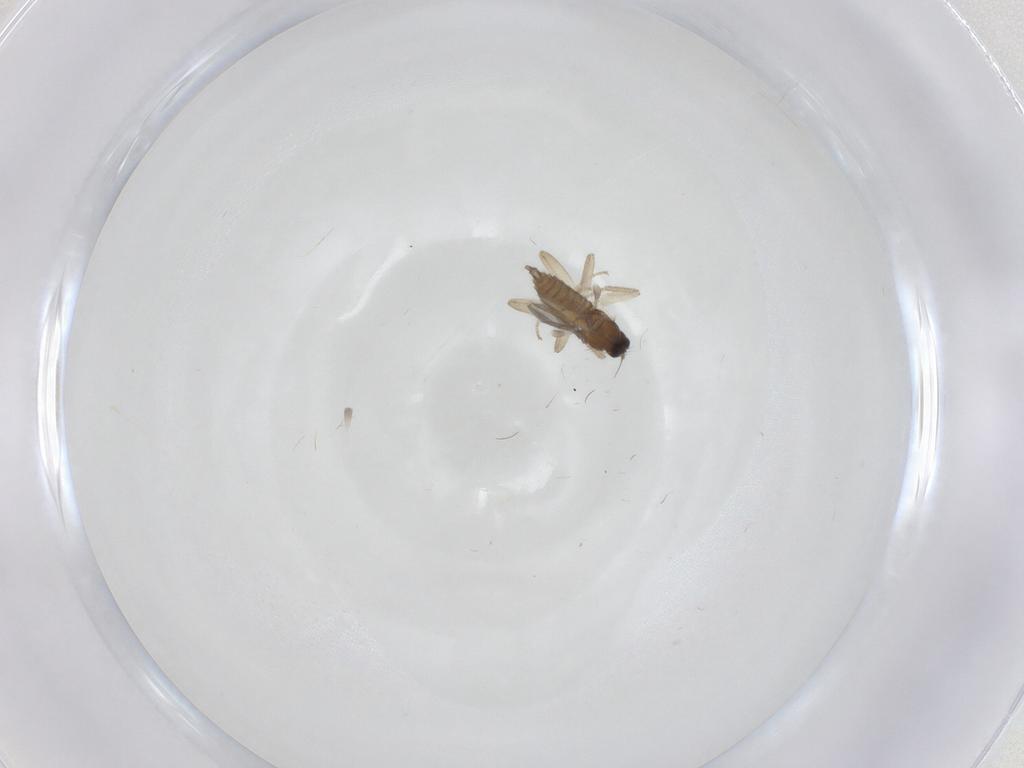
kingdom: Animalia
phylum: Arthropoda
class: Insecta
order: Diptera
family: Hybotidae
